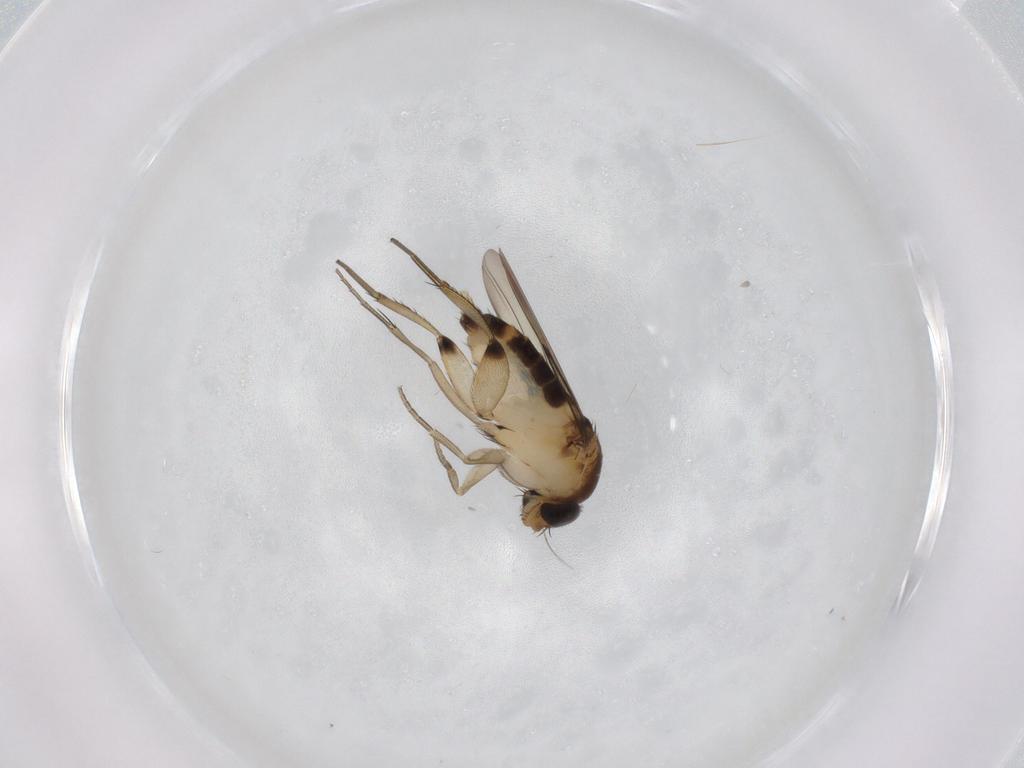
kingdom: Animalia
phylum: Arthropoda
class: Insecta
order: Diptera
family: Phoridae
